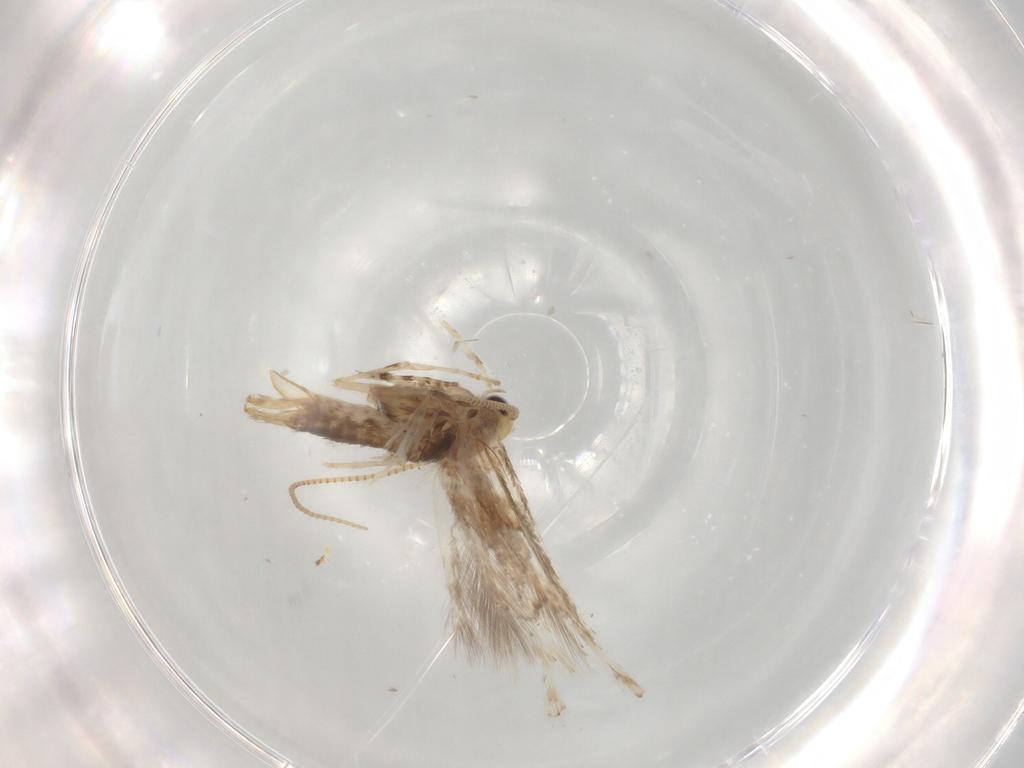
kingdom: Animalia
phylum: Arthropoda
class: Insecta
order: Lepidoptera
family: Gracillariidae
